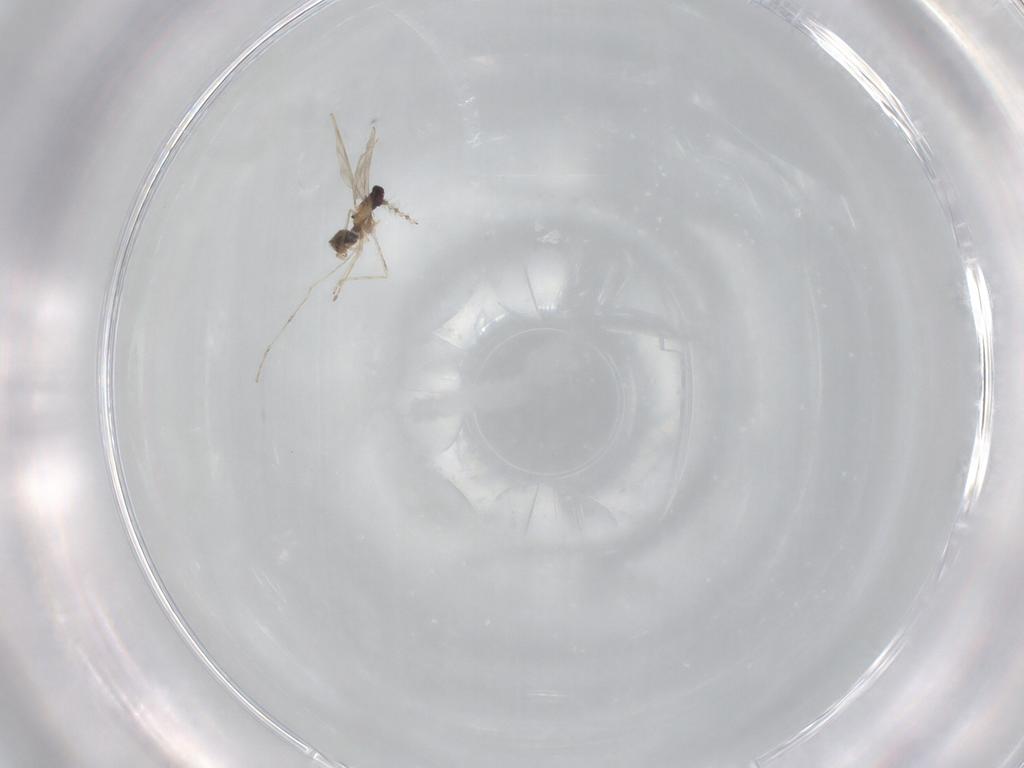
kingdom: Animalia
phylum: Arthropoda
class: Insecta
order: Diptera
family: Cecidomyiidae
